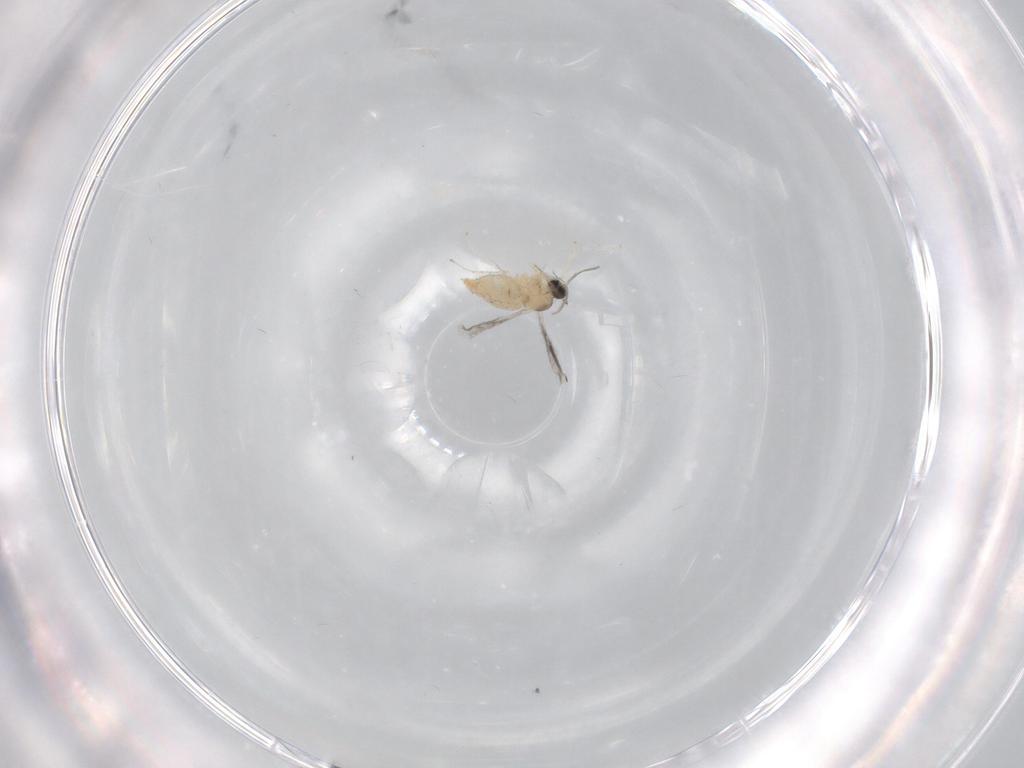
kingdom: Animalia
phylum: Arthropoda
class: Insecta
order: Diptera
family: Cecidomyiidae
